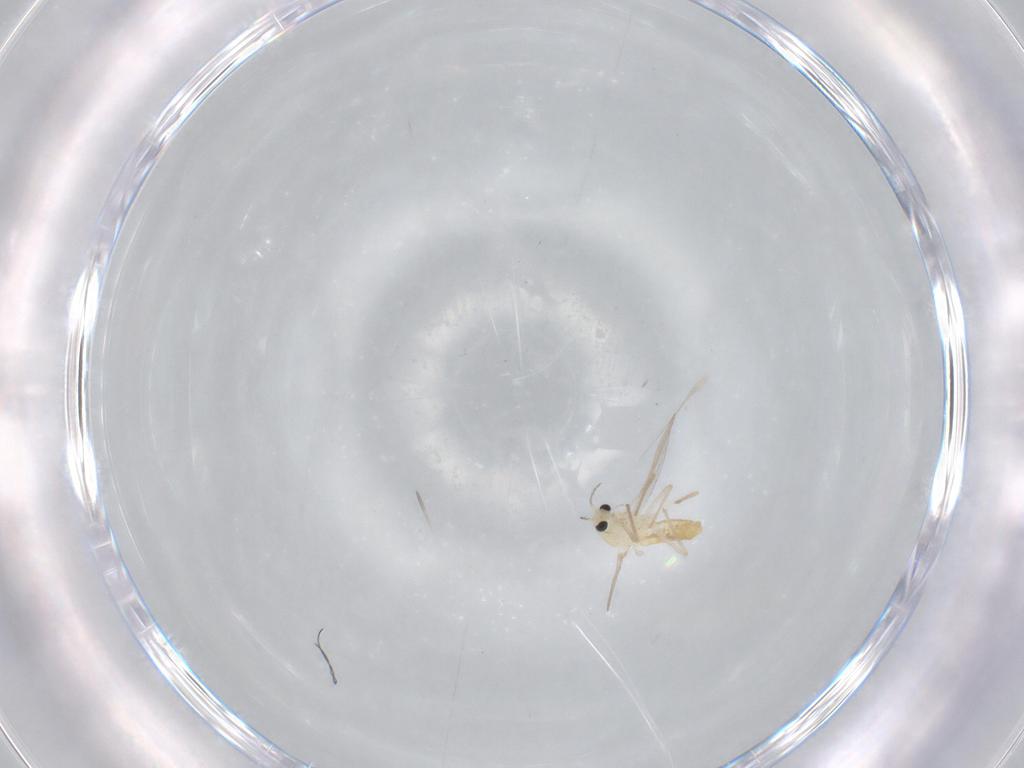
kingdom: Animalia
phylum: Arthropoda
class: Insecta
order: Diptera
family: Chironomidae
